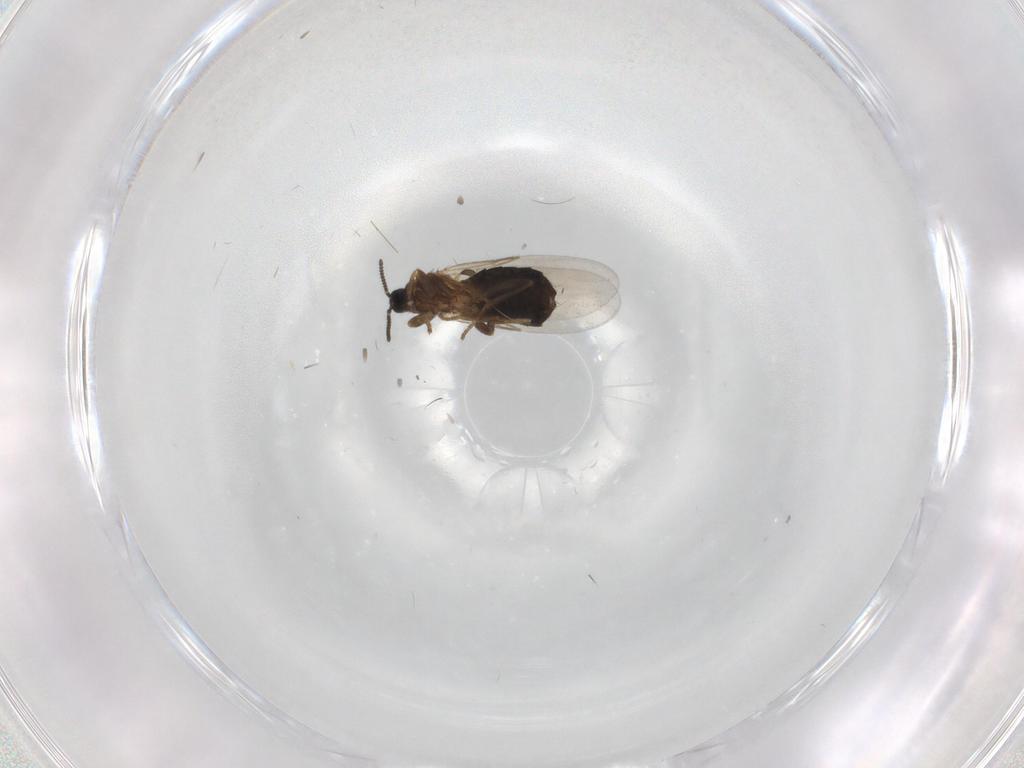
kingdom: Animalia
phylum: Arthropoda
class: Insecta
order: Diptera
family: Scatopsidae
